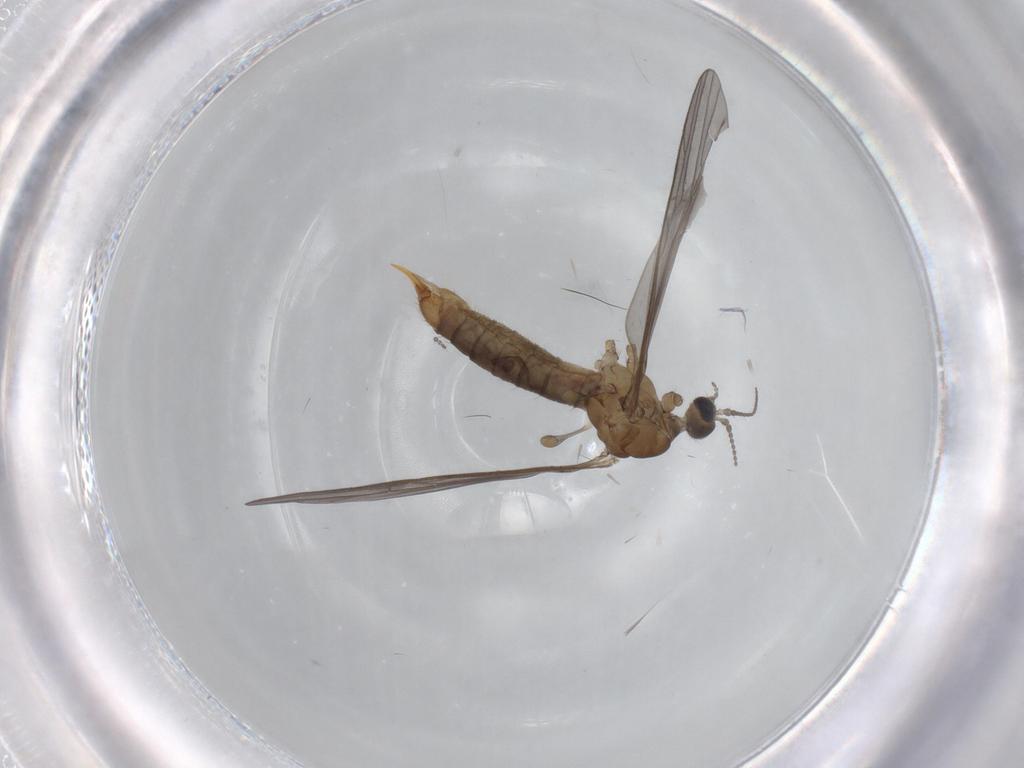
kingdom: Animalia
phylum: Arthropoda
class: Insecta
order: Diptera
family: Limoniidae
